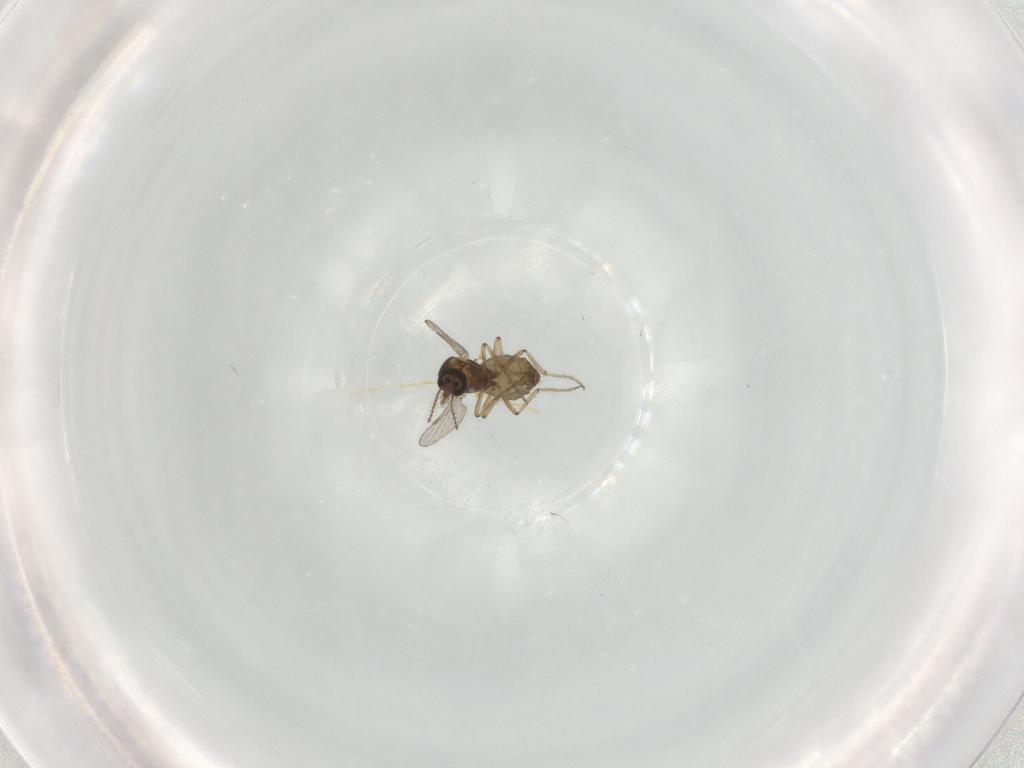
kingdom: Animalia
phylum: Arthropoda
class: Insecta
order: Diptera
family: Ceratopogonidae
